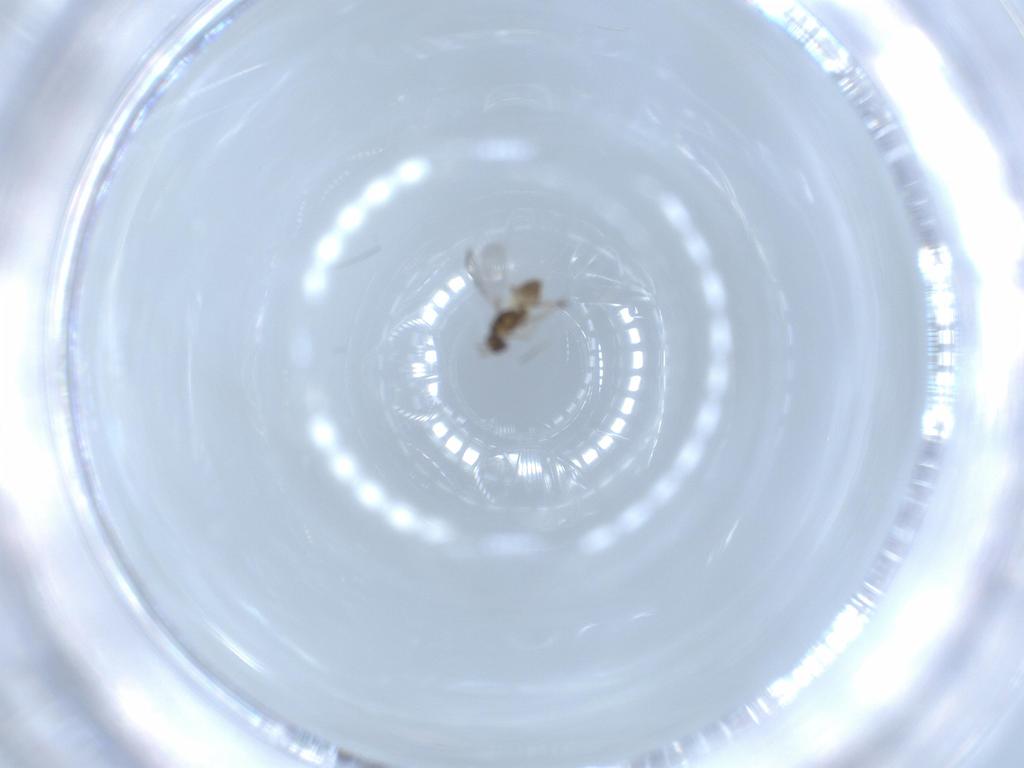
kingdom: Animalia
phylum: Arthropoda
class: Insecta
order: Hymenoptera
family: Mymaridae
